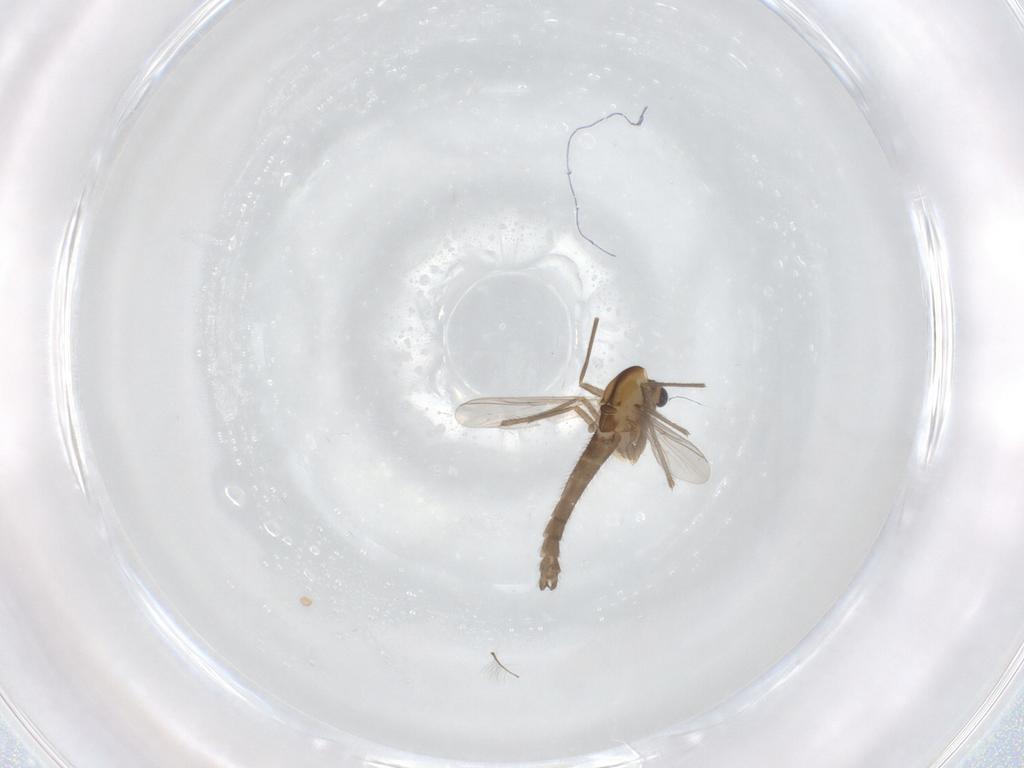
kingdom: Animalia
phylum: Arthropoda
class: Insecta
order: Diptera
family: Chironomidae
